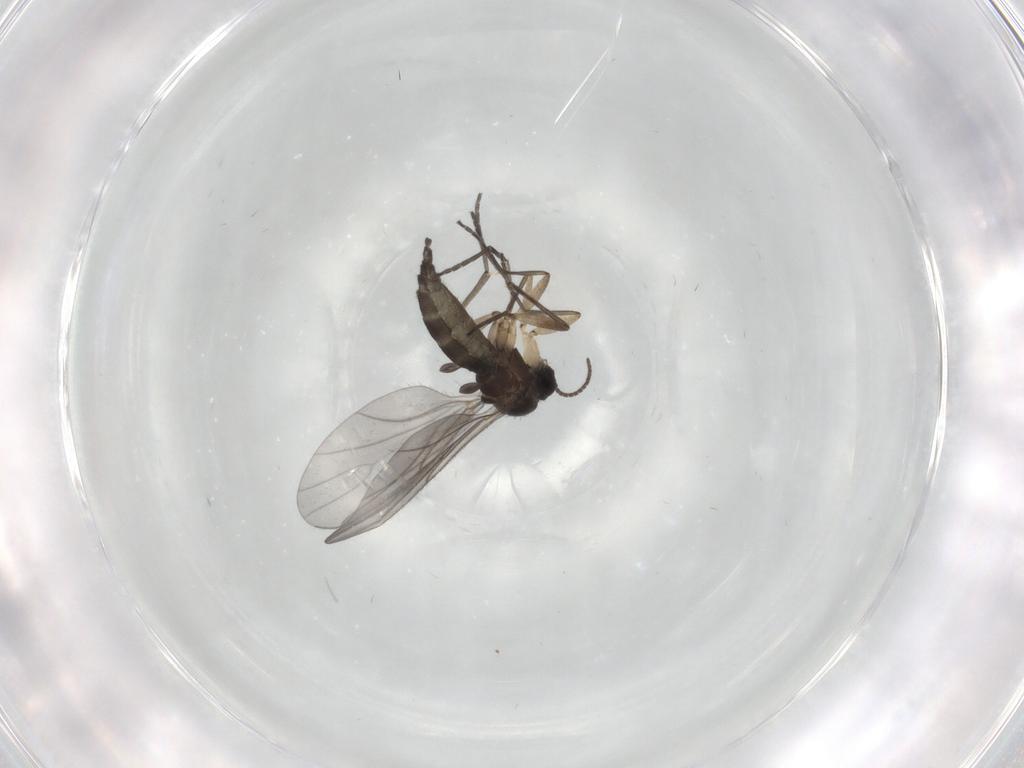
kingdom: Animalia
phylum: Arthropoda
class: Insecta
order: Diptera
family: Sciaridae
